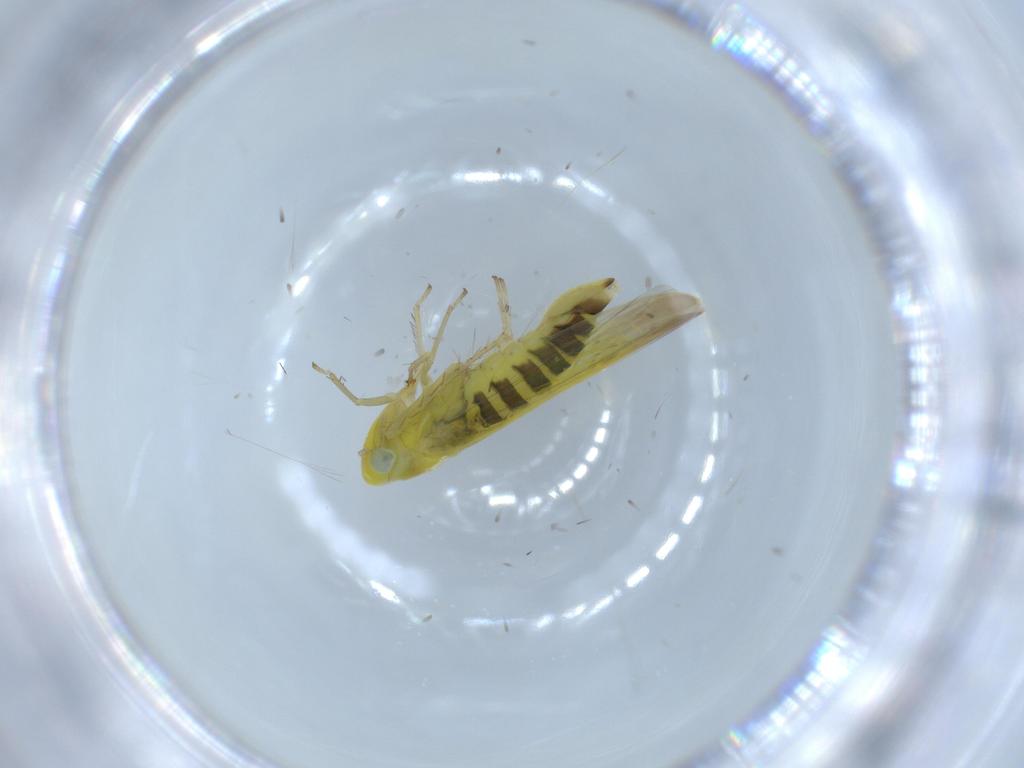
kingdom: Animalia
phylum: Arthropoda
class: Insecta
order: Hemiptera
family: Cicadellidae
